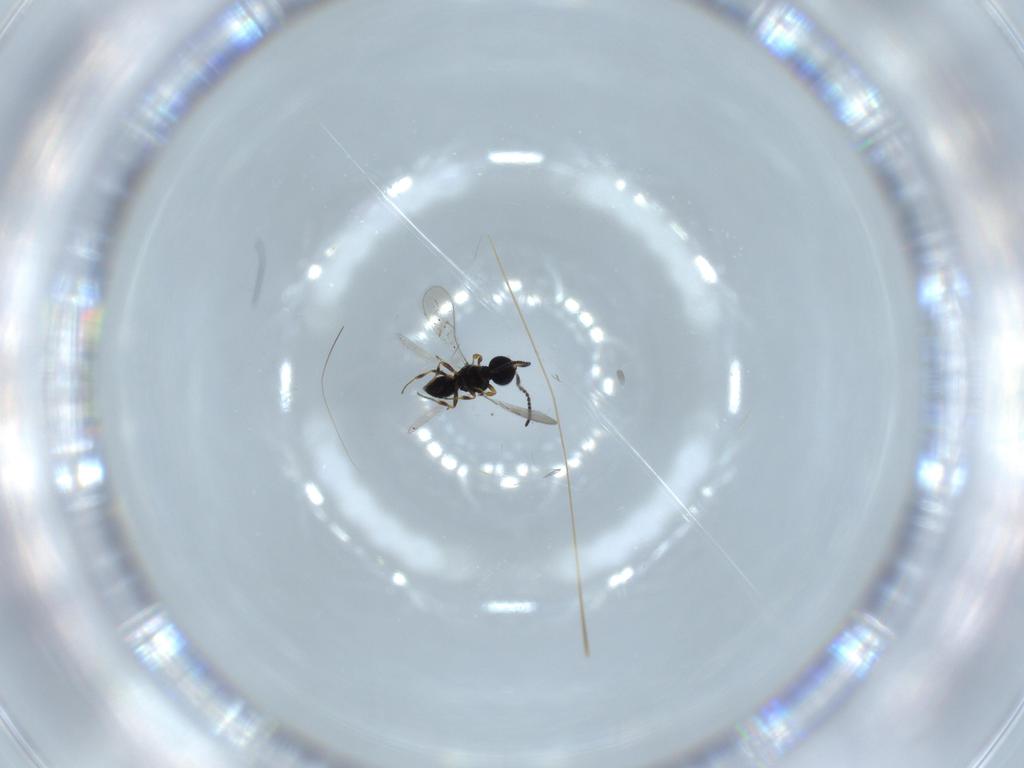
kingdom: Animalia
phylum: Arthropoda
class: Insecta
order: Hymenoptera
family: Ceraphronidae
